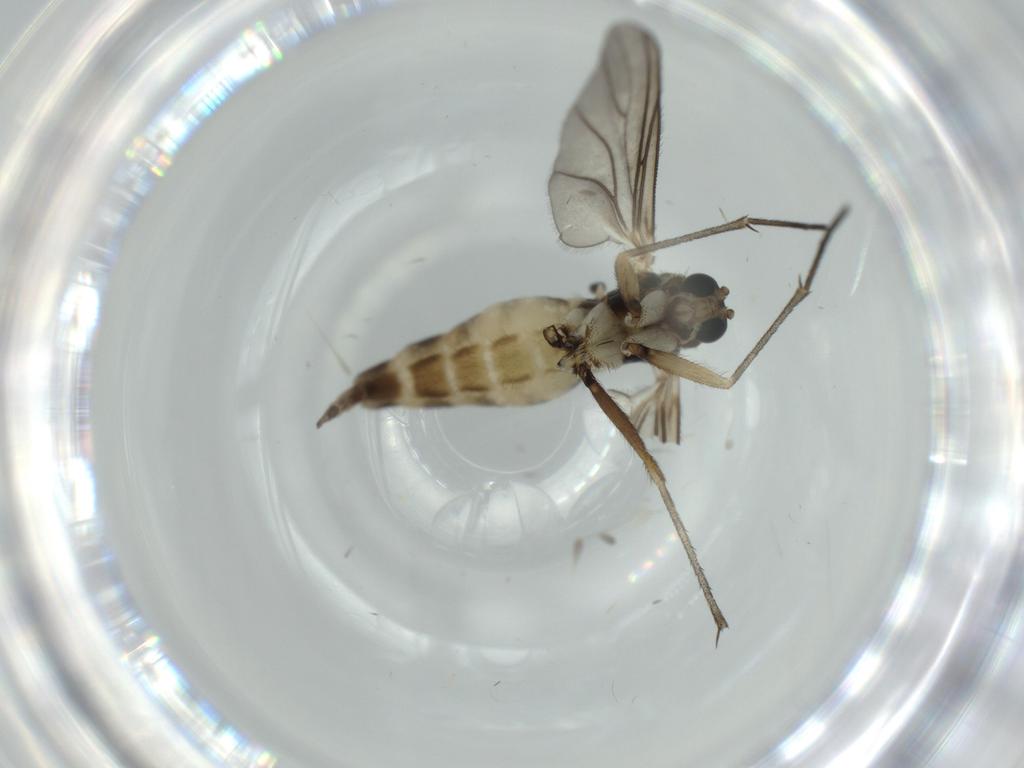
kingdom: Animalia
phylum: Arthropoda
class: Insecta
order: Diptera
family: Sciaridae
